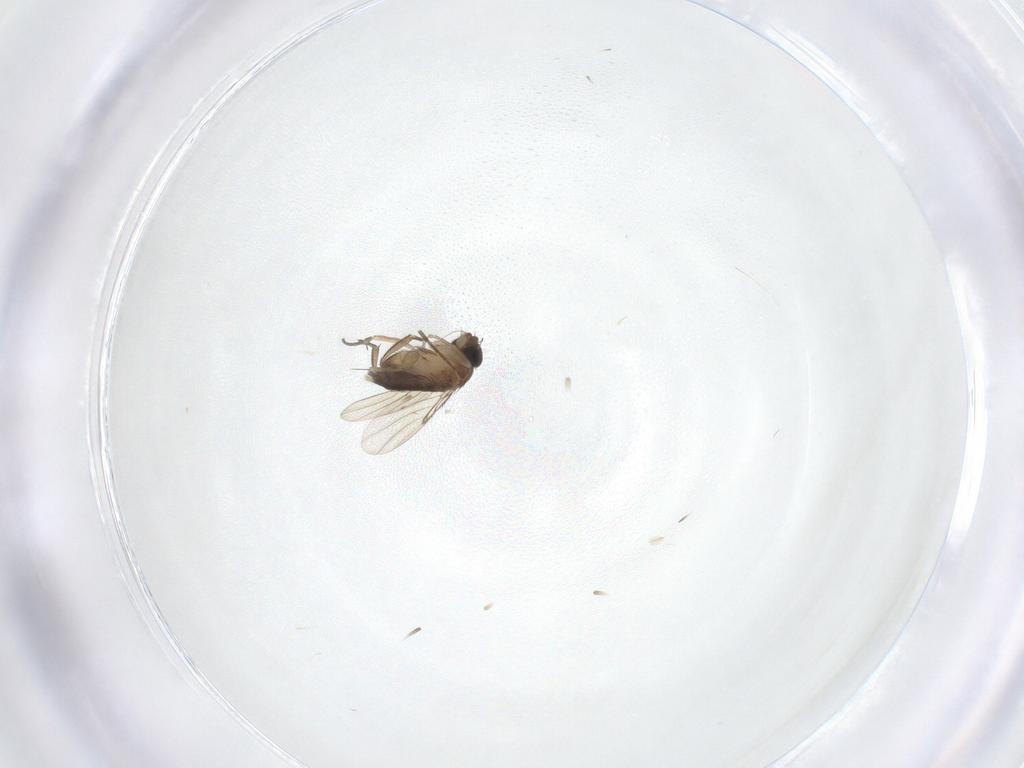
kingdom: Animalia
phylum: Arthropoda
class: Insecta
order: Diptera
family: Phoridae
